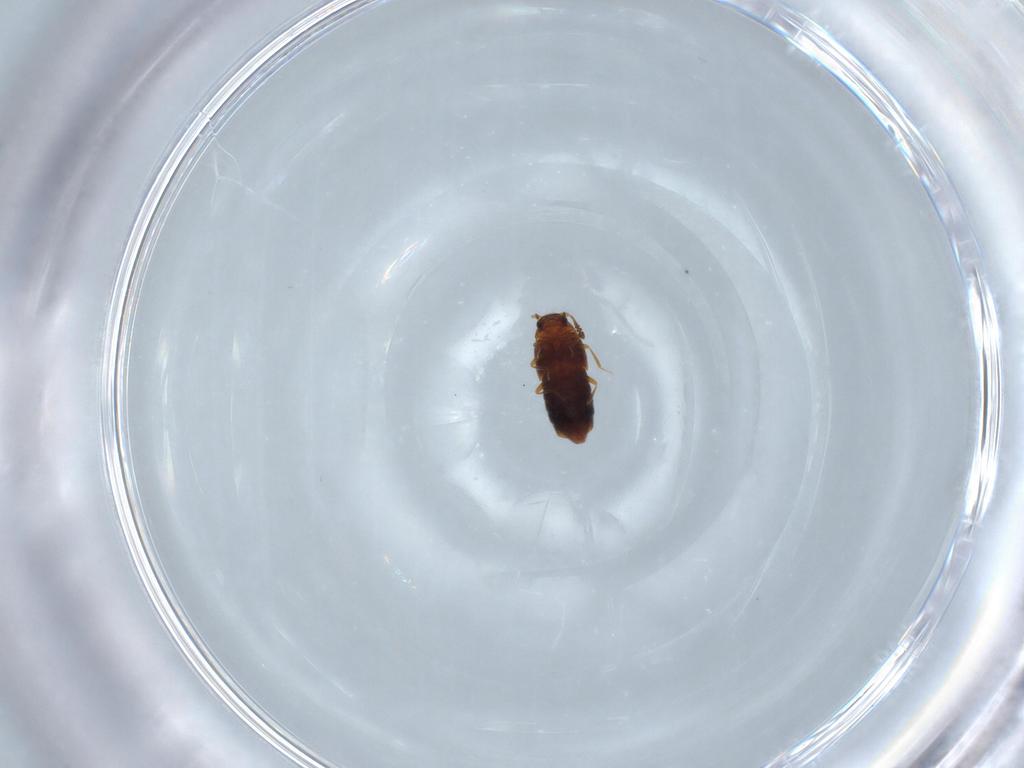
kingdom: Animalia
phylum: Arthropoda
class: Insecta
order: Coleoptera
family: Staphylinidae
